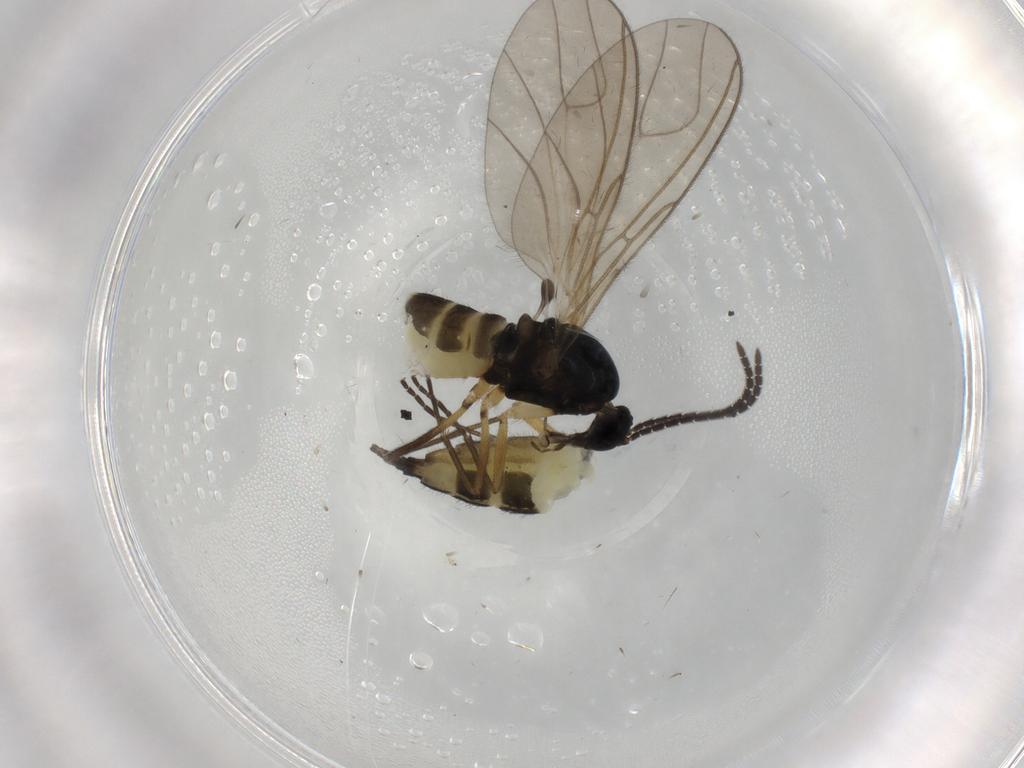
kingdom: Animalia
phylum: Arthropoda
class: Insecta
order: Diptera
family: Sciaridae
